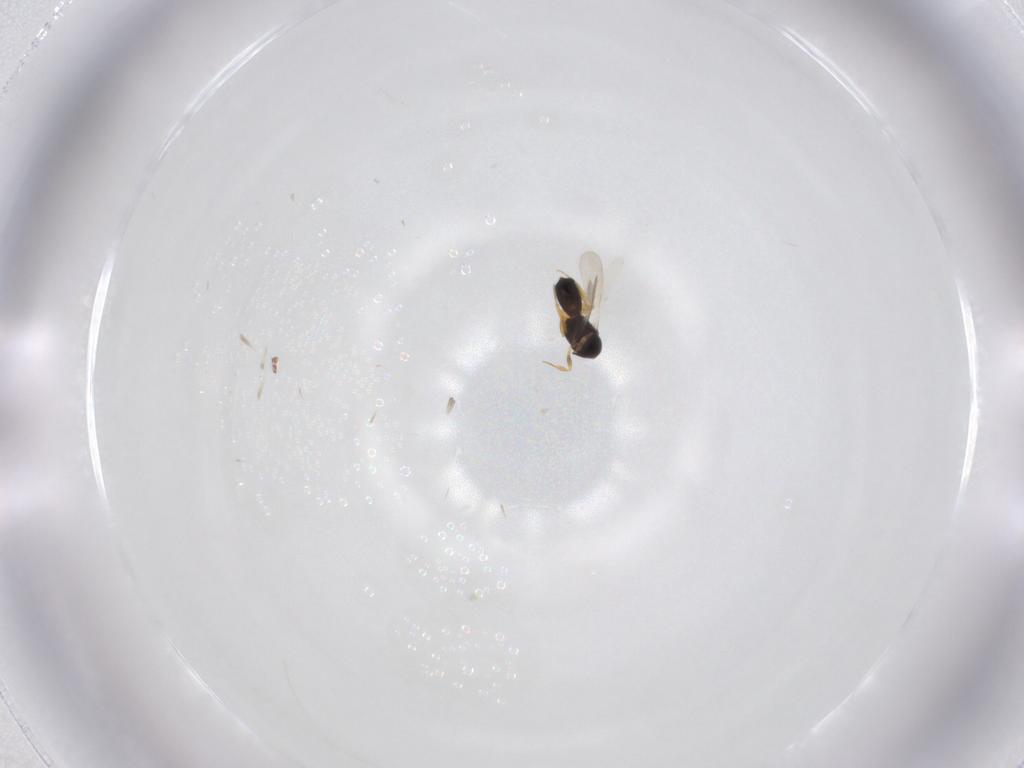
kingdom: Animalia
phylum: Arthropoda
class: Insecta
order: Hymenoptera
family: Scelionidae
